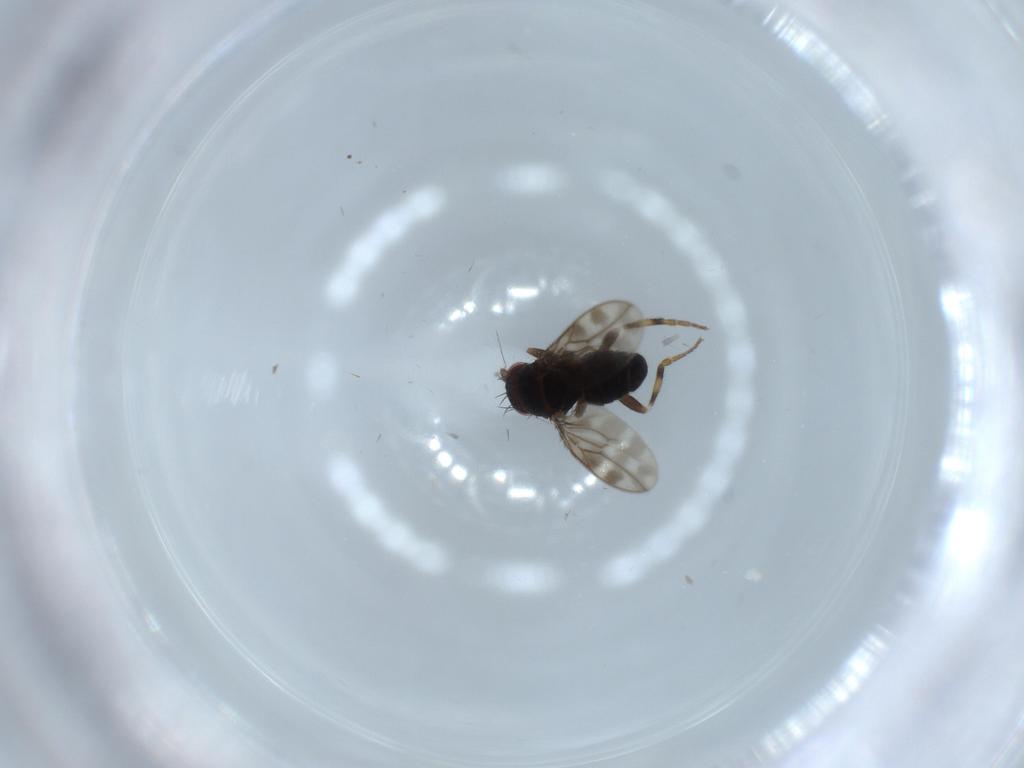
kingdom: Animalia
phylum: Arthropoda
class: Insecta
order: Diptera
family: Sphaeroceridae
